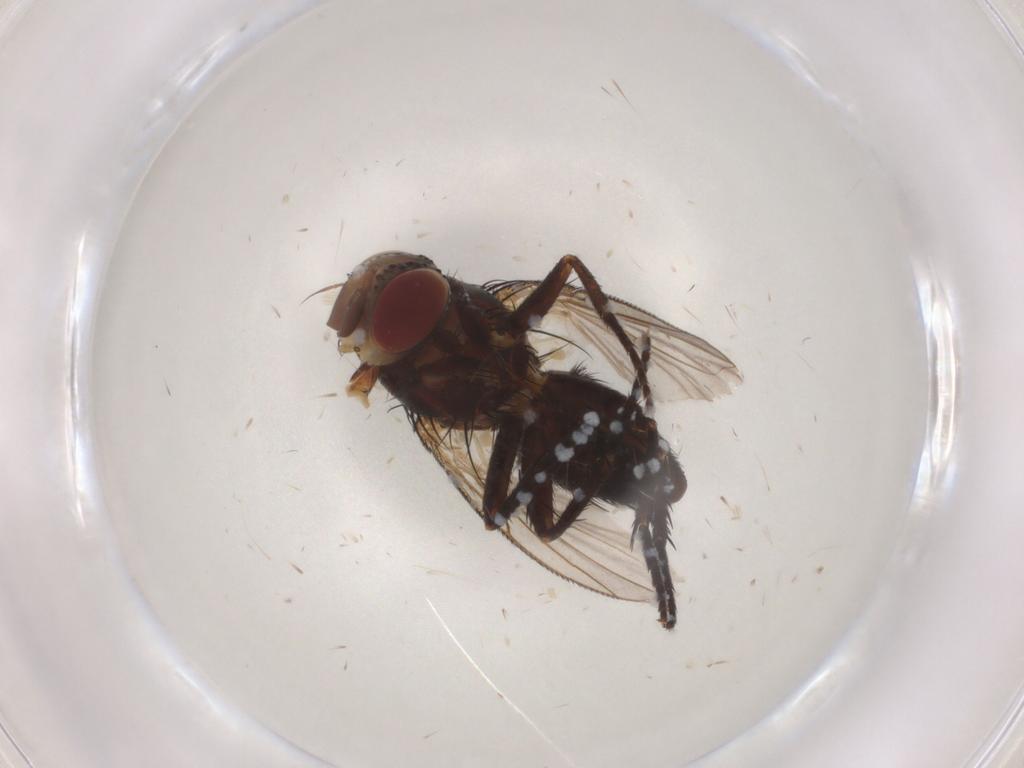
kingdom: Animalia
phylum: Arthropoda
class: Insecta
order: Diptera
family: Tachinidae
